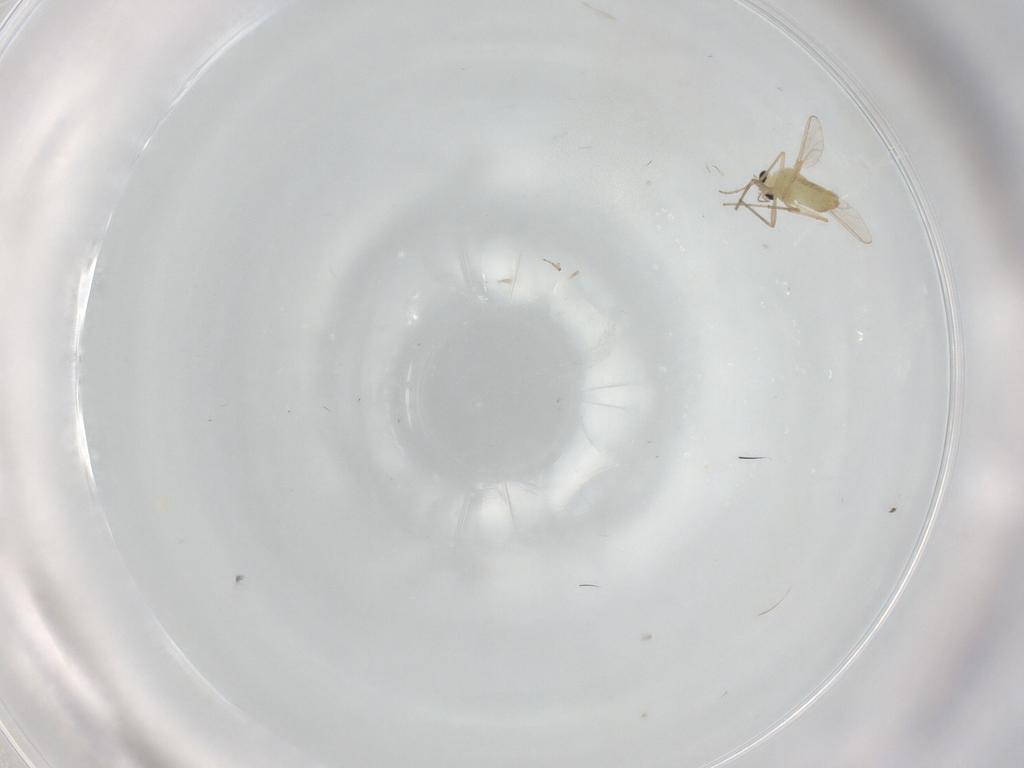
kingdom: Animalia
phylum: Arthropoda
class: Insecta
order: Diptera
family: Chironomidae
